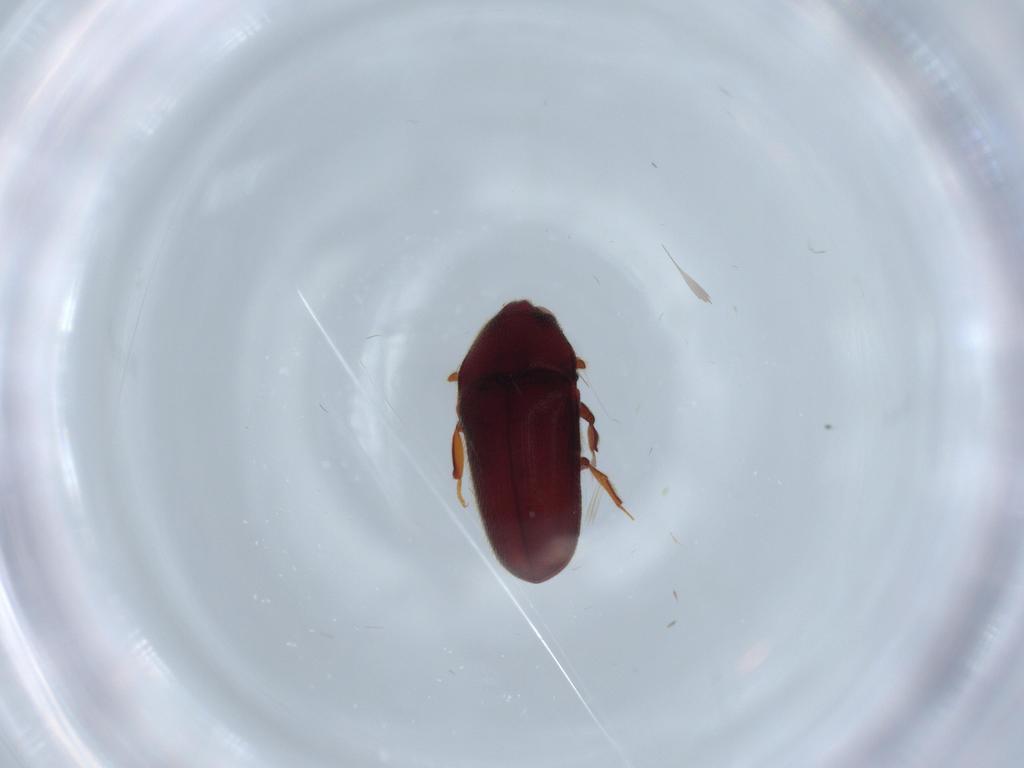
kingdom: Animalia
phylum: Arthropoda
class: Insecta
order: Coleoptera
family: Throscidae
